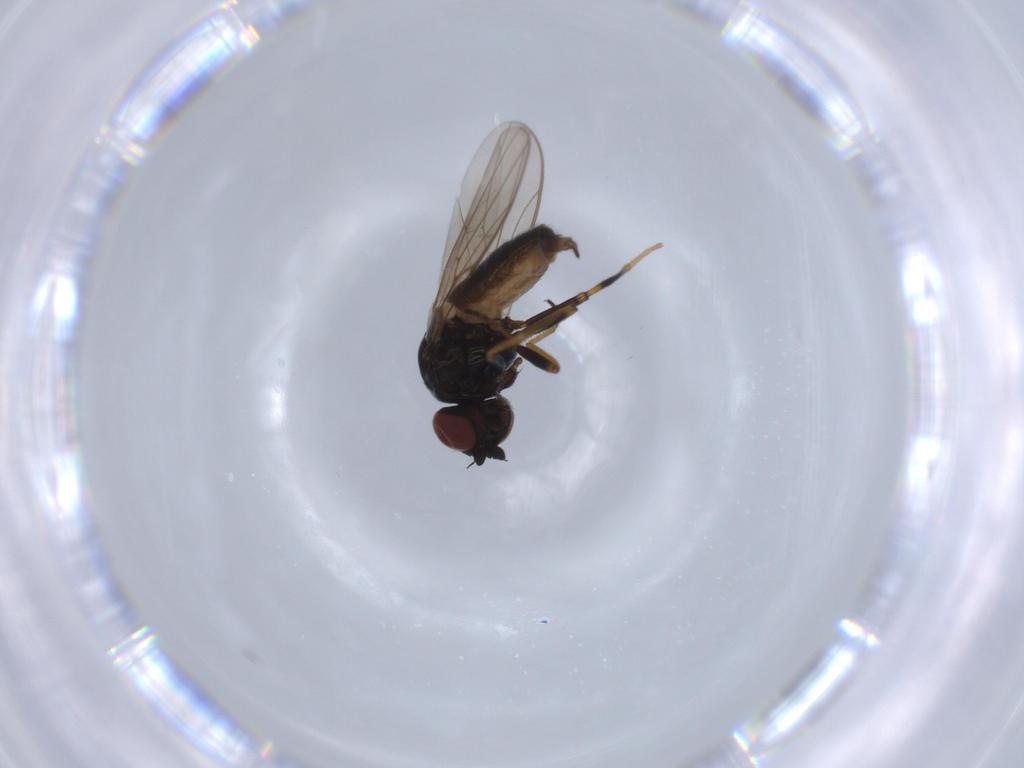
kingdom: Animalia
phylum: Arthropoda
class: Insecta
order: Diptera
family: Chloropidae
